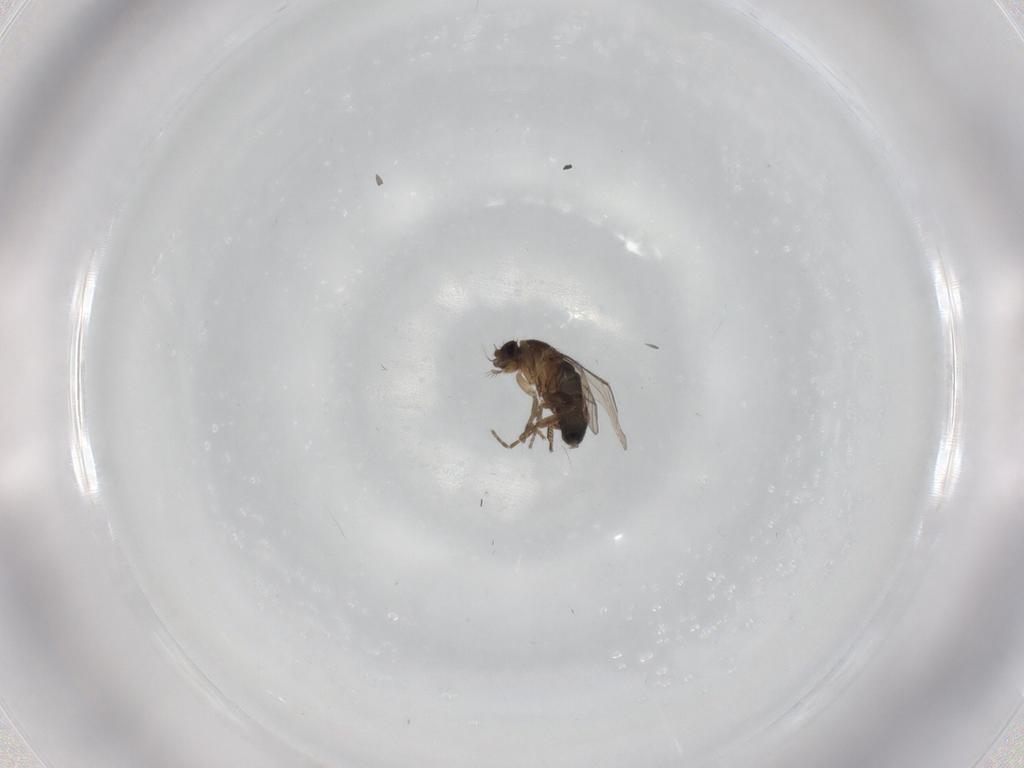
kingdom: Animalia
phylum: Arthropoda
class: Insecta
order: Diptera
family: Phoridae
